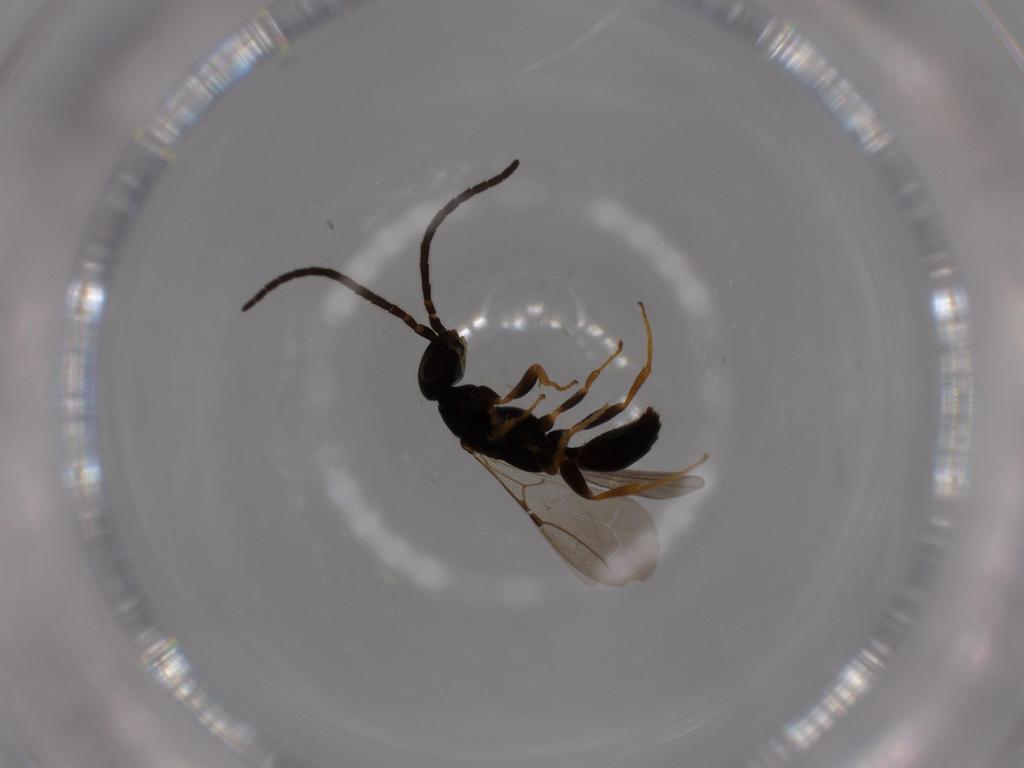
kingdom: Animalia
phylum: Arthropoda
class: Insecta
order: Hymenoptera
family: Bethylidae
